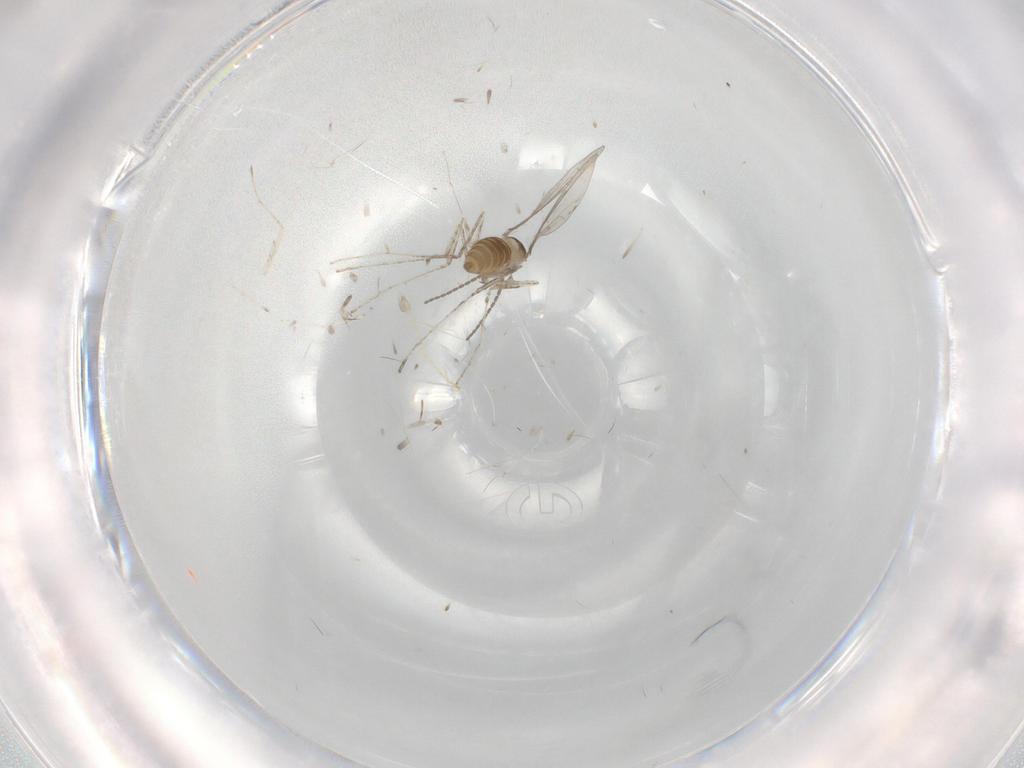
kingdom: Animalia
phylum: Arthropoda
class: Insecta
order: Diptera
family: Cecidomyiidae
